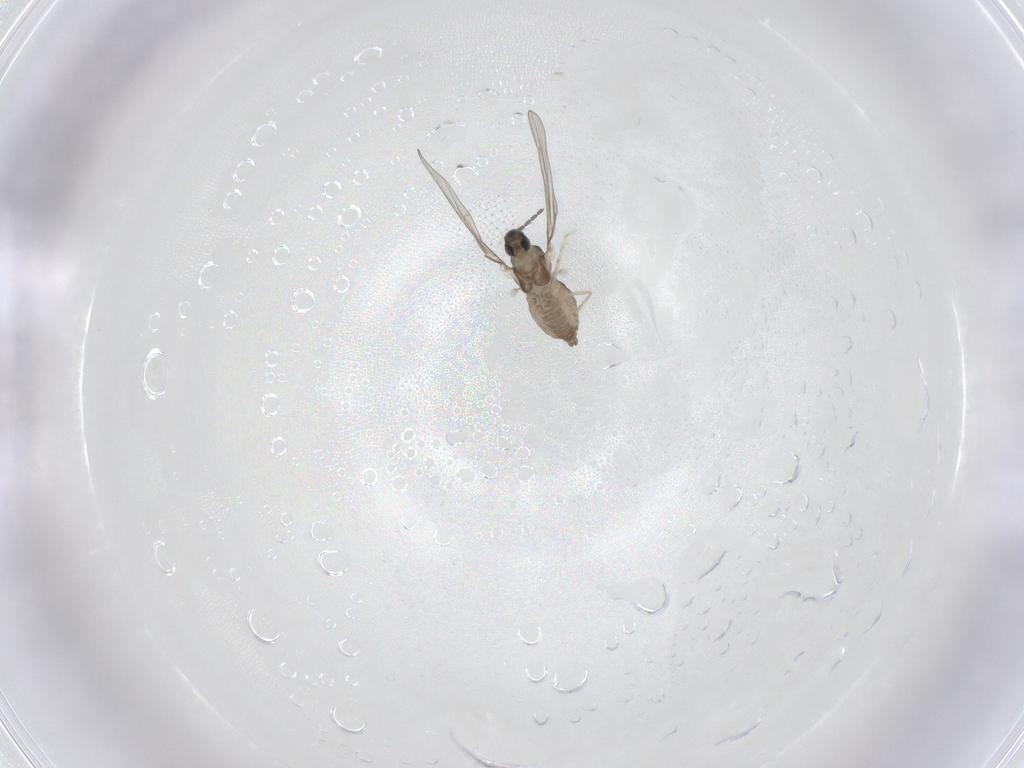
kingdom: Animalia
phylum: Arthropoda
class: Insecta
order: Diptera
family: Cecidomyiidae
